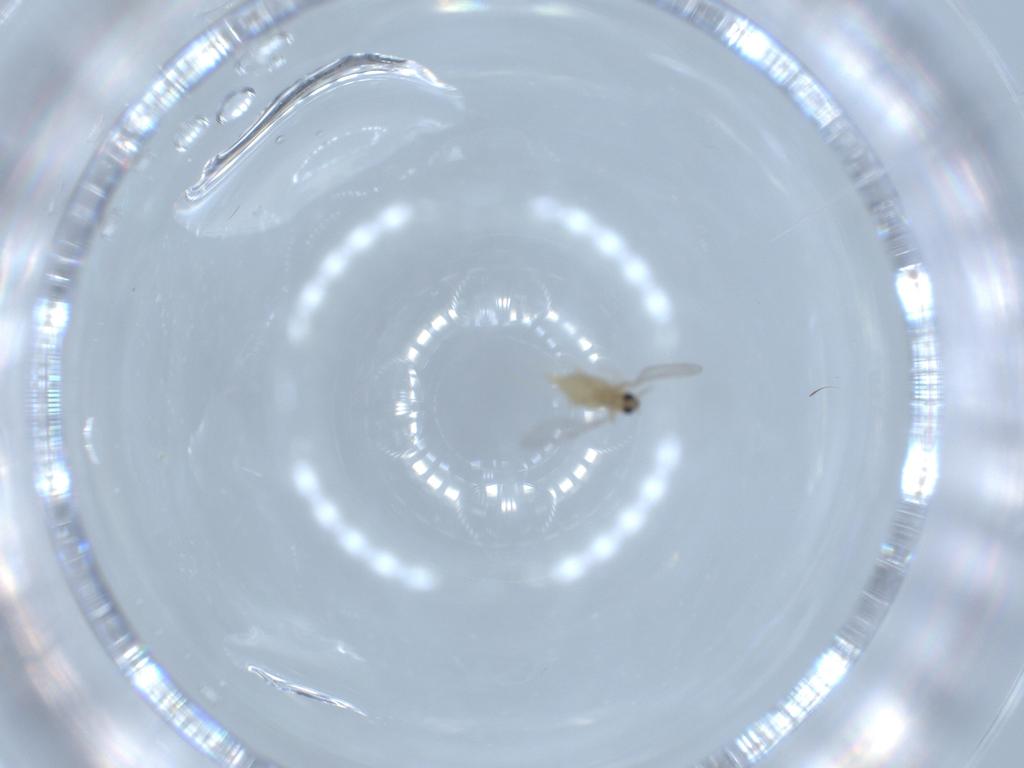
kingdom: Animalia
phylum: Arthropoda
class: Insecta
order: Diptera
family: Cecidomyiidae
